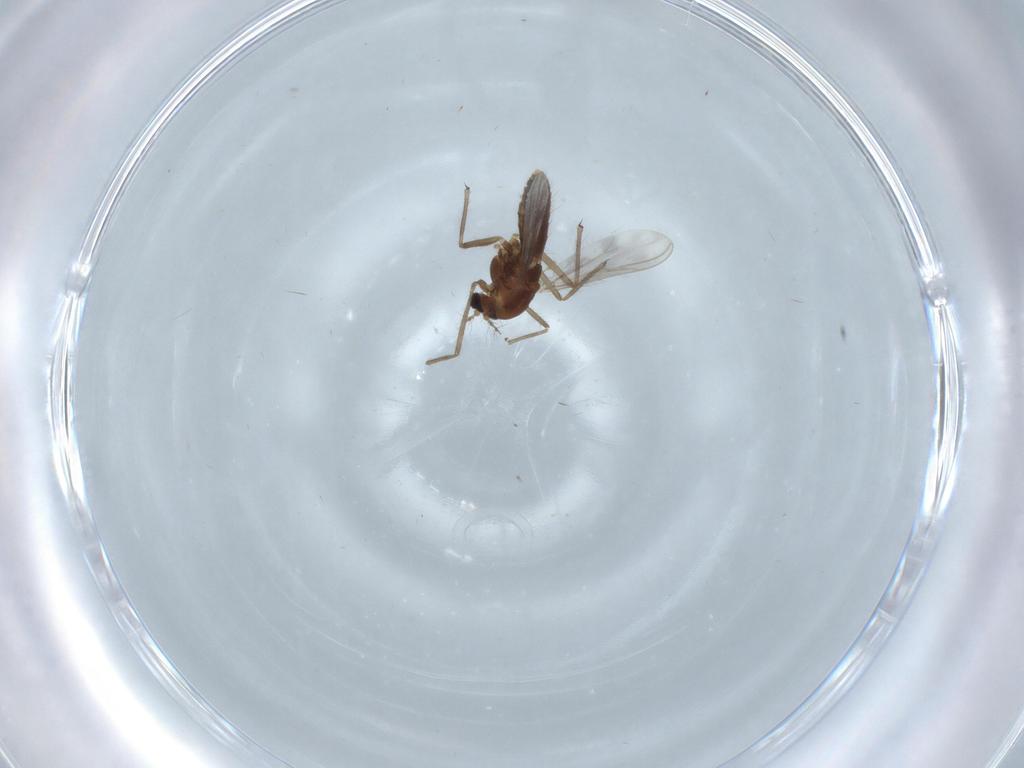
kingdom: Animalia
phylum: Arthropoda
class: Insecta
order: Diptera
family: Chironomidae
